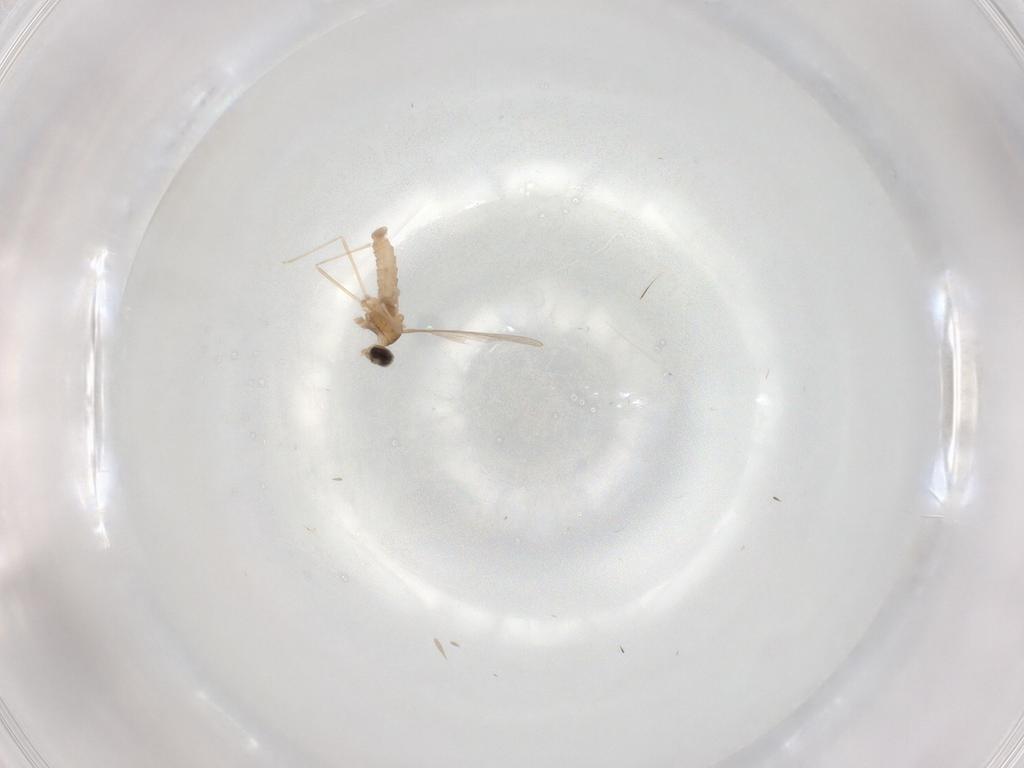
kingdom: Animalia
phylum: Arthropoda
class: Insecta
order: Diptera
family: Cecidomyiidae
